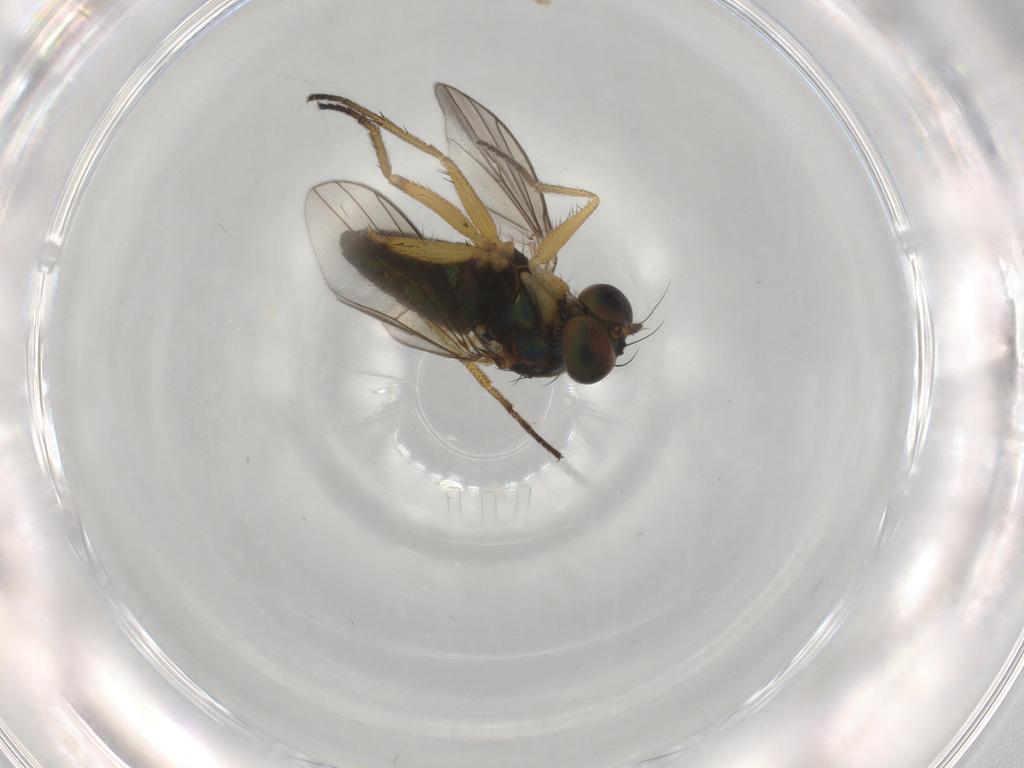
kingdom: Animalia
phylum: Arthropoda
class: Insecta
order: Diptera
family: Dolichopodidae
